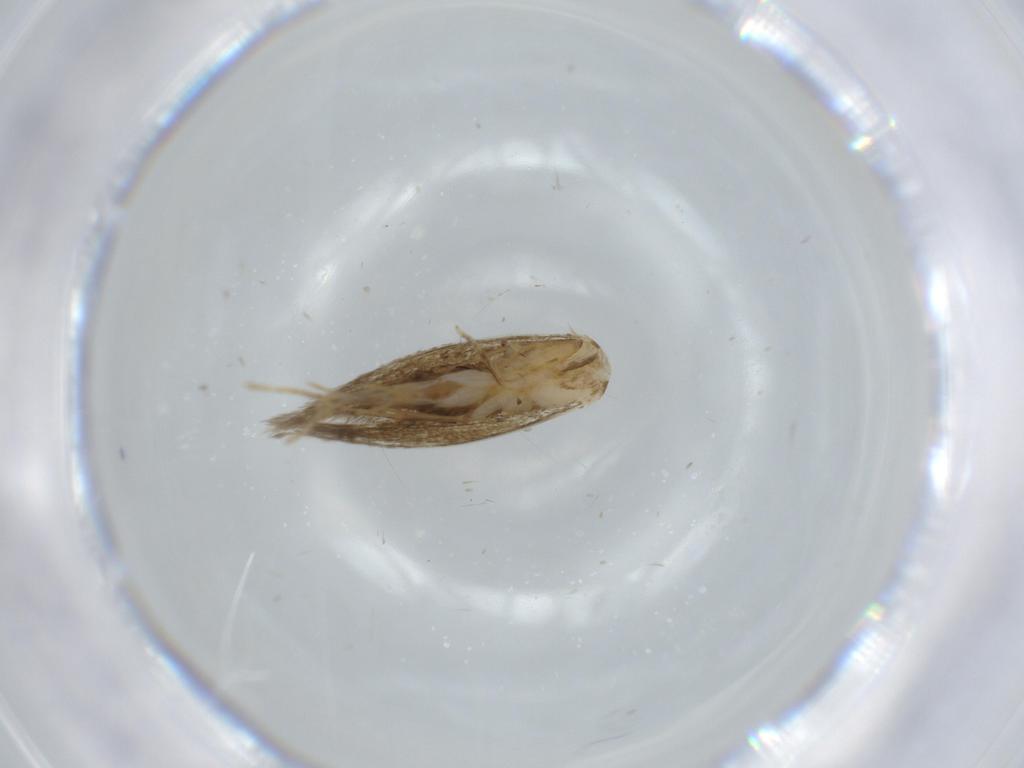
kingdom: Animalia
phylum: Arthropoda
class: Insecta
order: Lepidoptera
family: Tineidae
